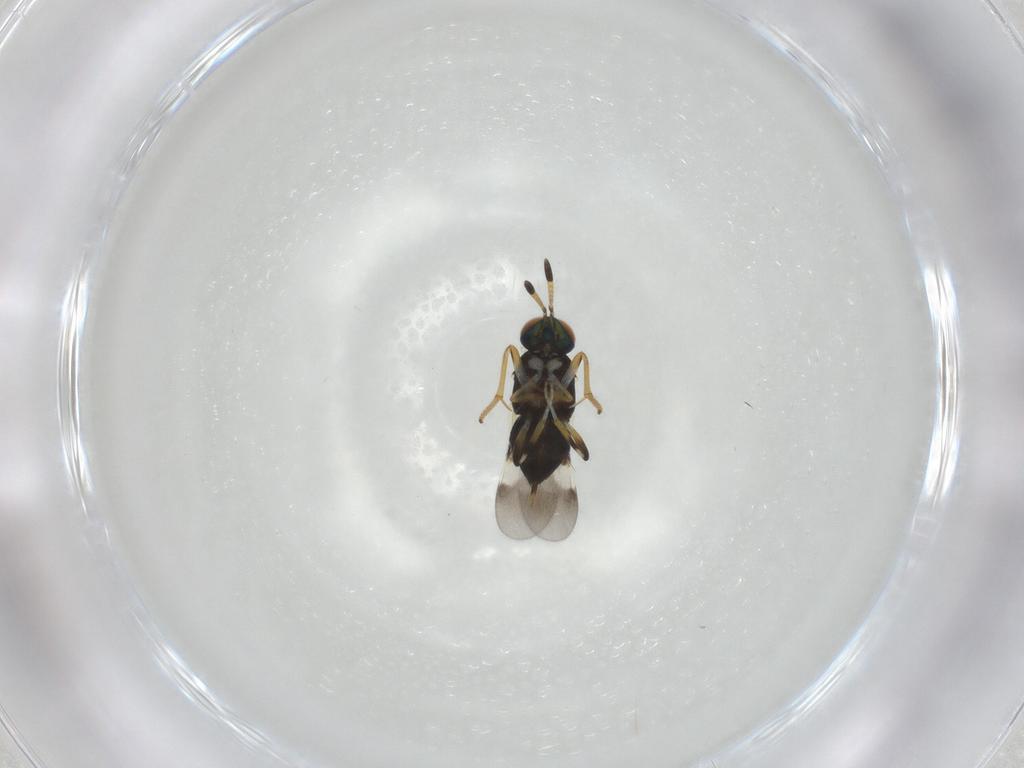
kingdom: Animalia
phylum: Arthropoda
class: Insecta
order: Hymenoptera
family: Encyrtidae
